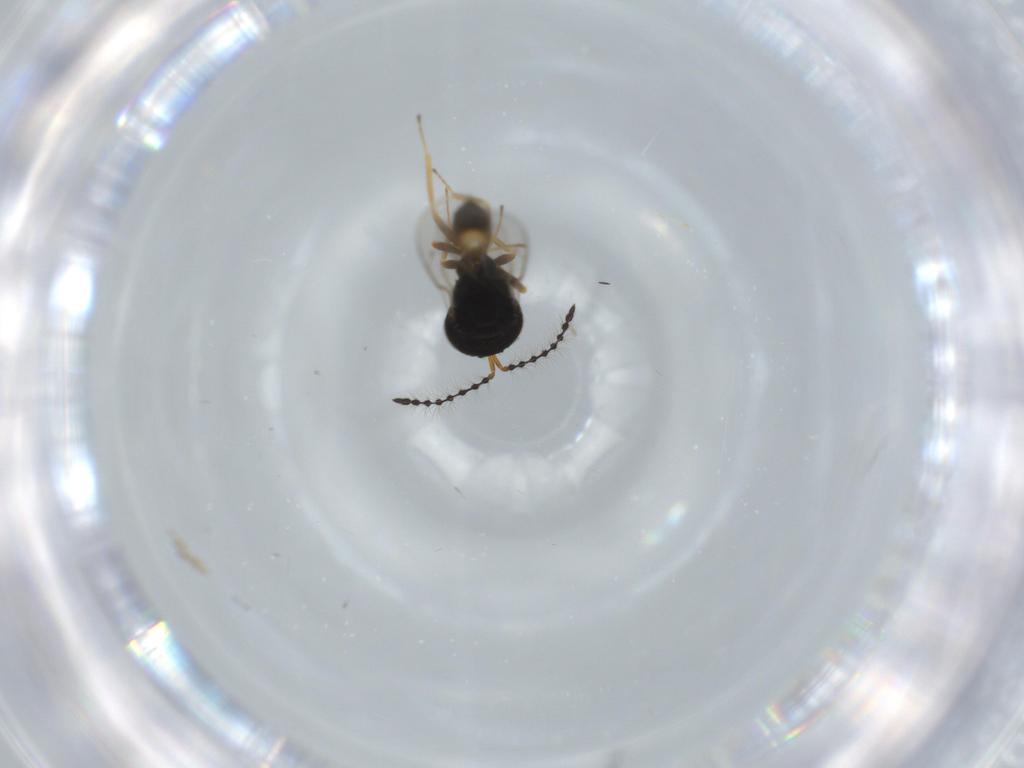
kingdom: Animalia
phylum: Arthropoda
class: Insecta
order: Hymenoptera
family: Pteromalidae
